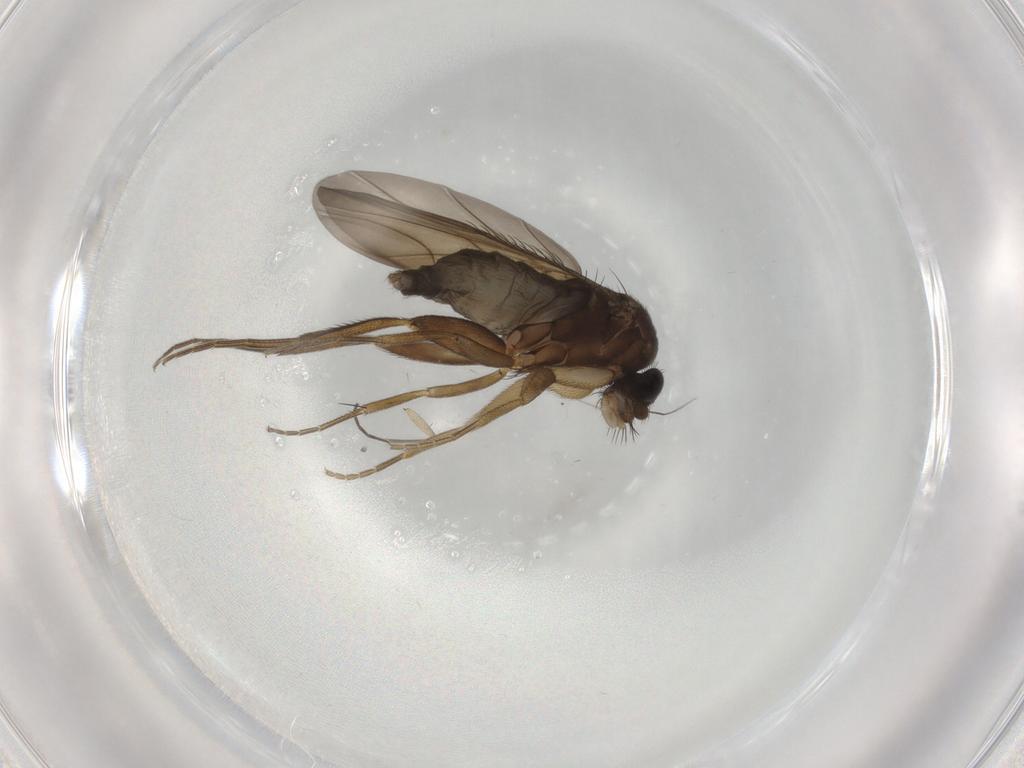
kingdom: Animalia
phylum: Arthropoda
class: Insecta
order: Diptera
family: Phoridae
